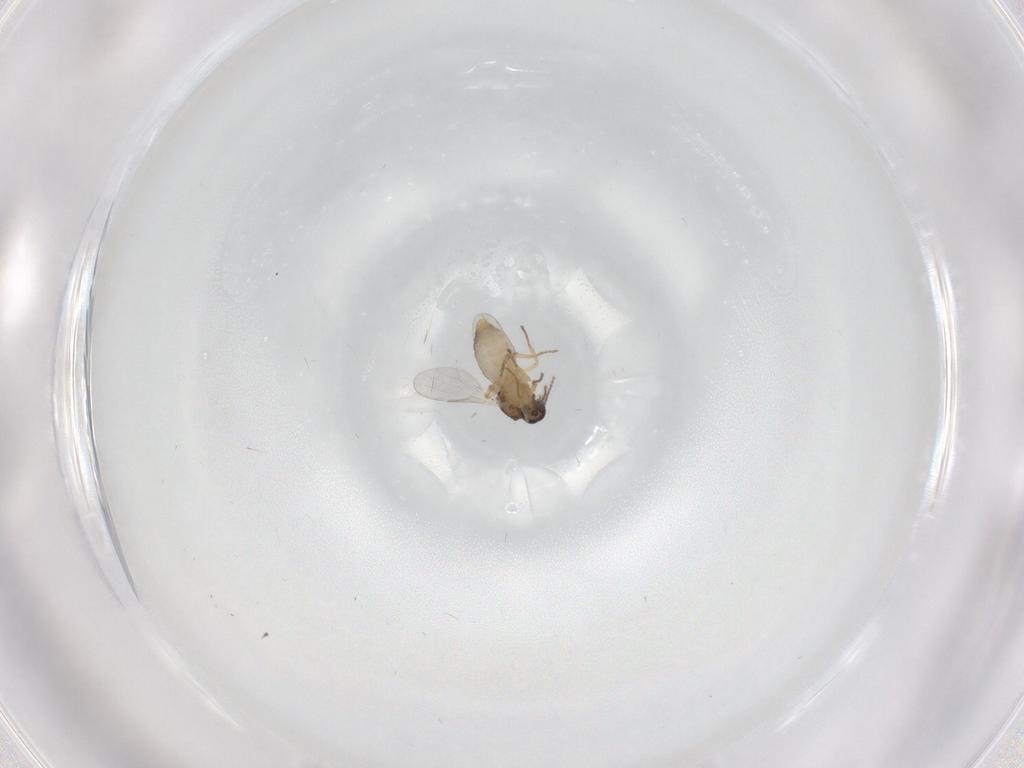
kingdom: Animalia
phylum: Arthropoda
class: Insecta
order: Diptera
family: Ceratopogonidae
